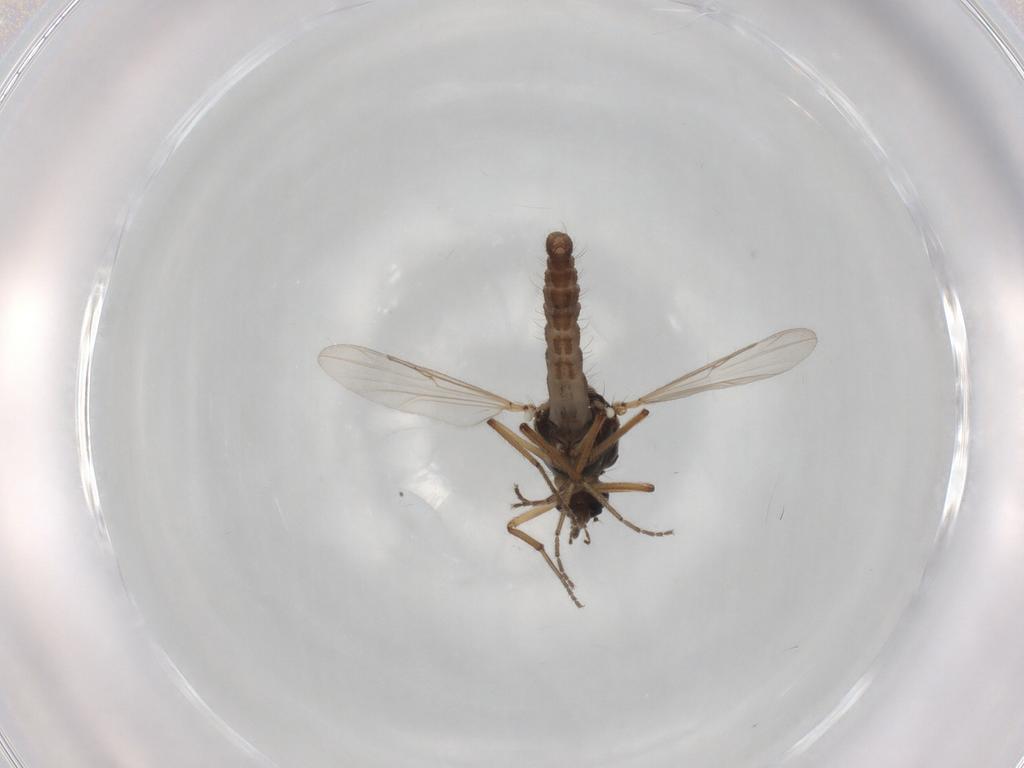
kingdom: Animalia
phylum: Arthropoda
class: Insecta
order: Diptera
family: Ceratopogonidae
